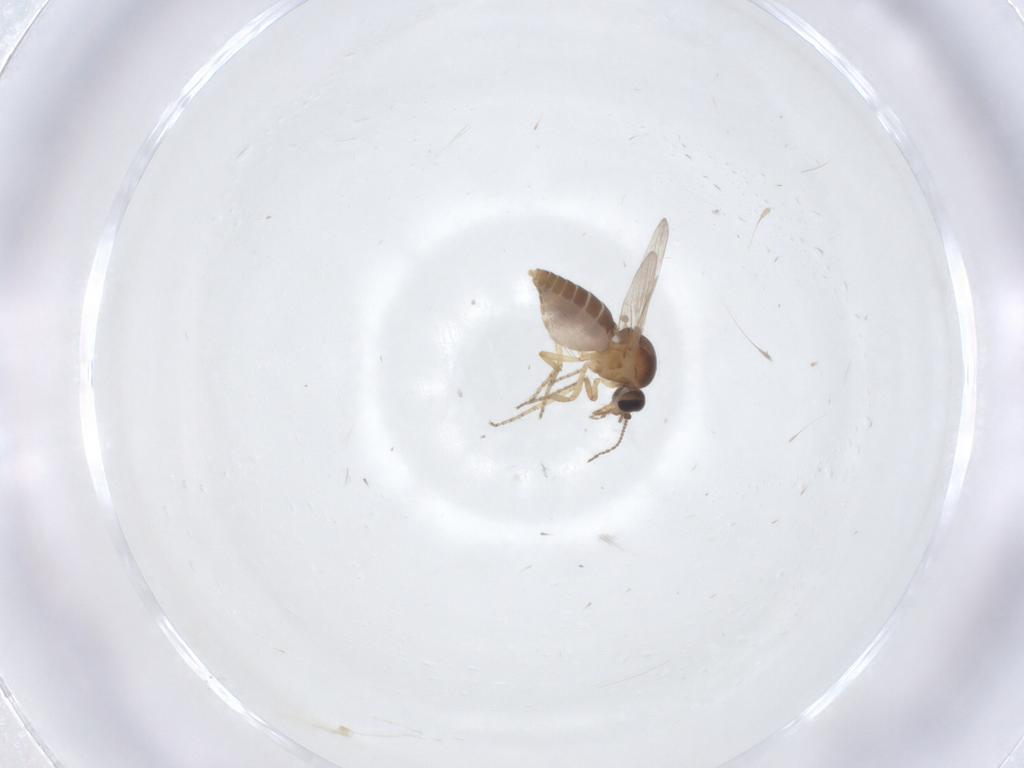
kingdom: Animalia
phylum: Arthropoda
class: Insecta
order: Diptera
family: Ceratopogonidae
